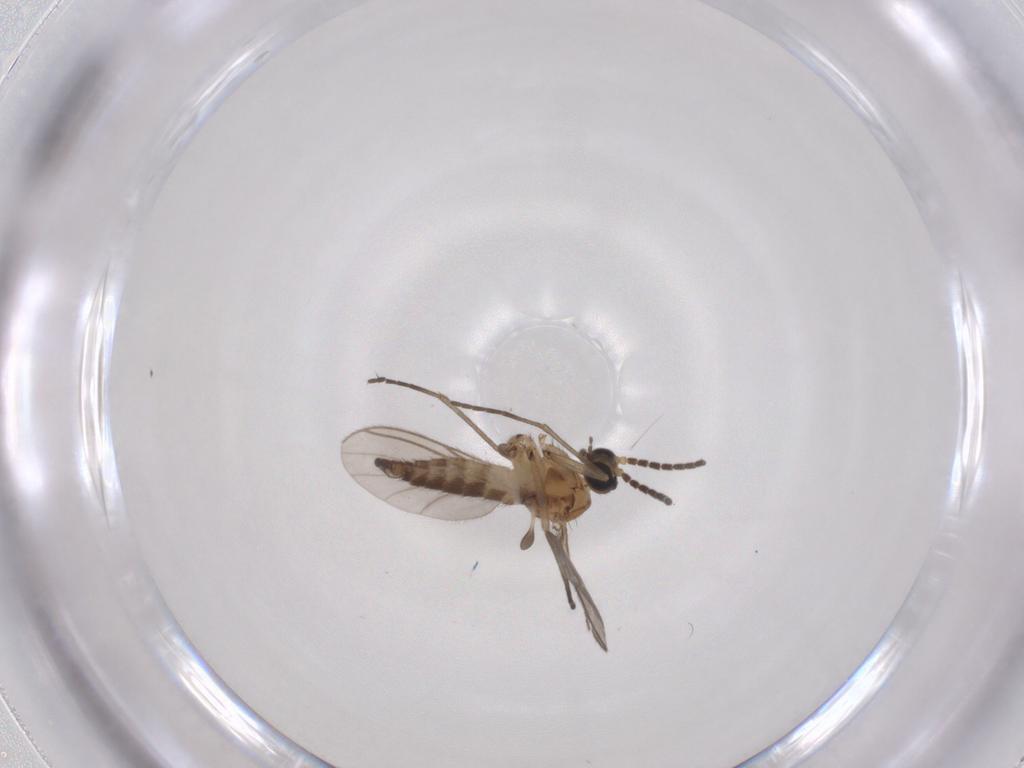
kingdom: Animalia
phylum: Arthropoda
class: Insecta
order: Diptera
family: Sciaridae
